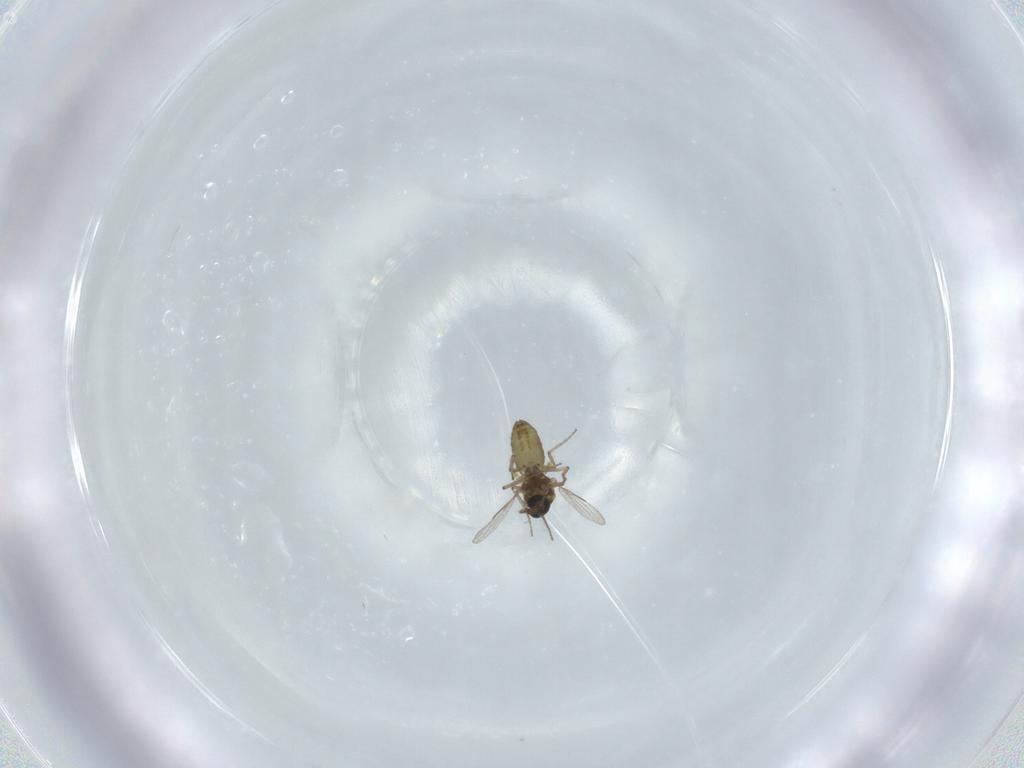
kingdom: Animalia
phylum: Arthropoda
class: Insecta
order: Diptera
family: Ceratopogonidae
